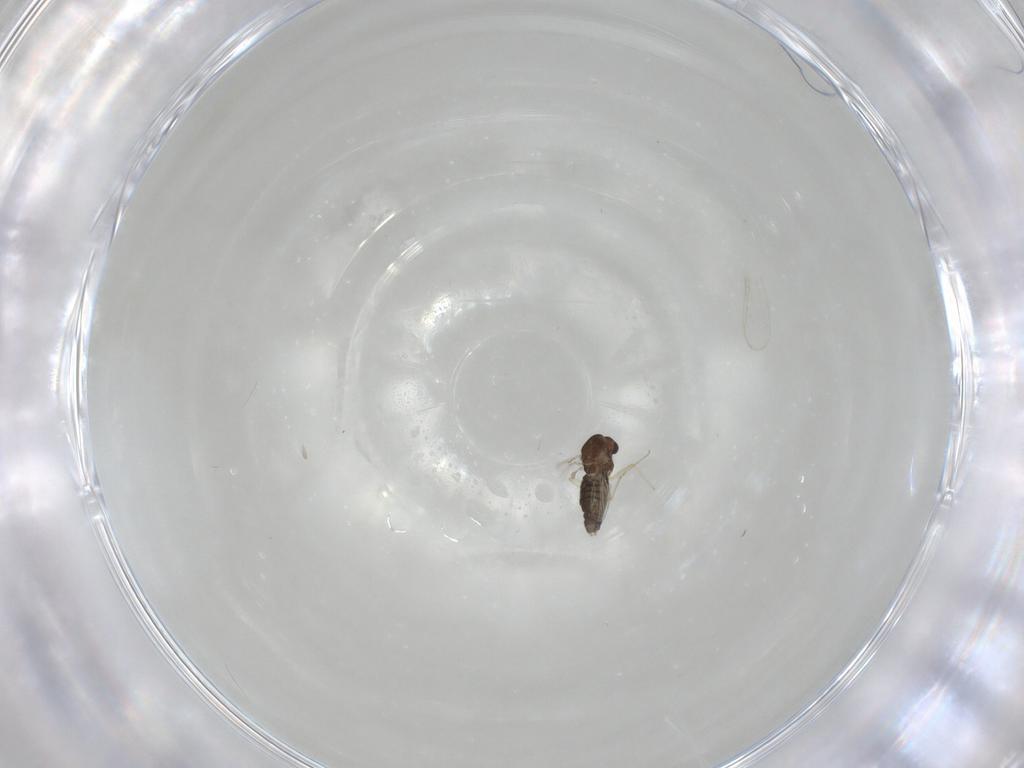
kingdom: Animalia
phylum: Arthropoda
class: Insecta
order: Diptera
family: Chironomidae
